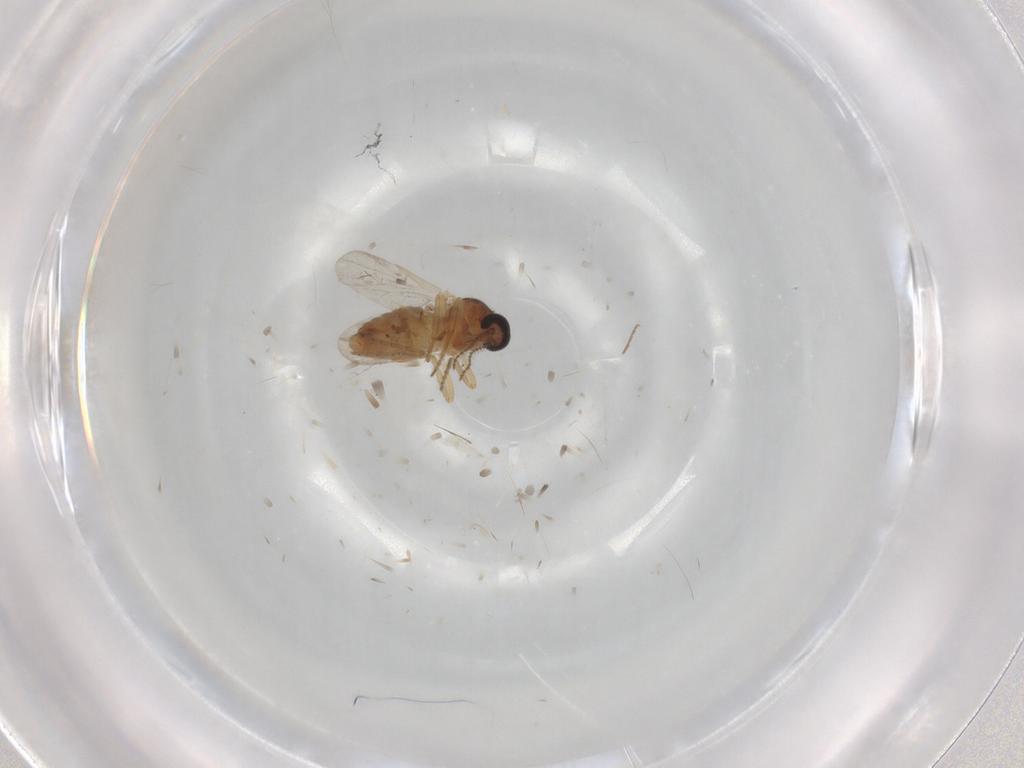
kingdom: Animalia
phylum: Arthropoda
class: Insecta
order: Diptera
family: Ceratopogonidae
